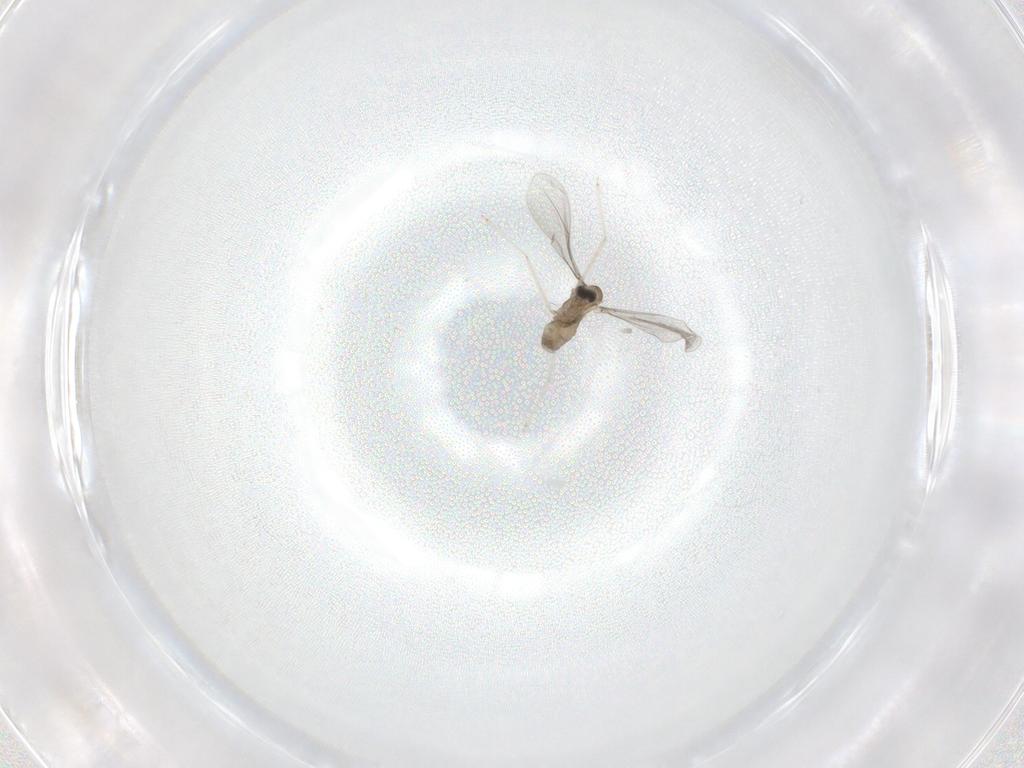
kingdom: Animalia
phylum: Arthropoda
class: Insecta
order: Diptera
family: Cecidomyiidae
